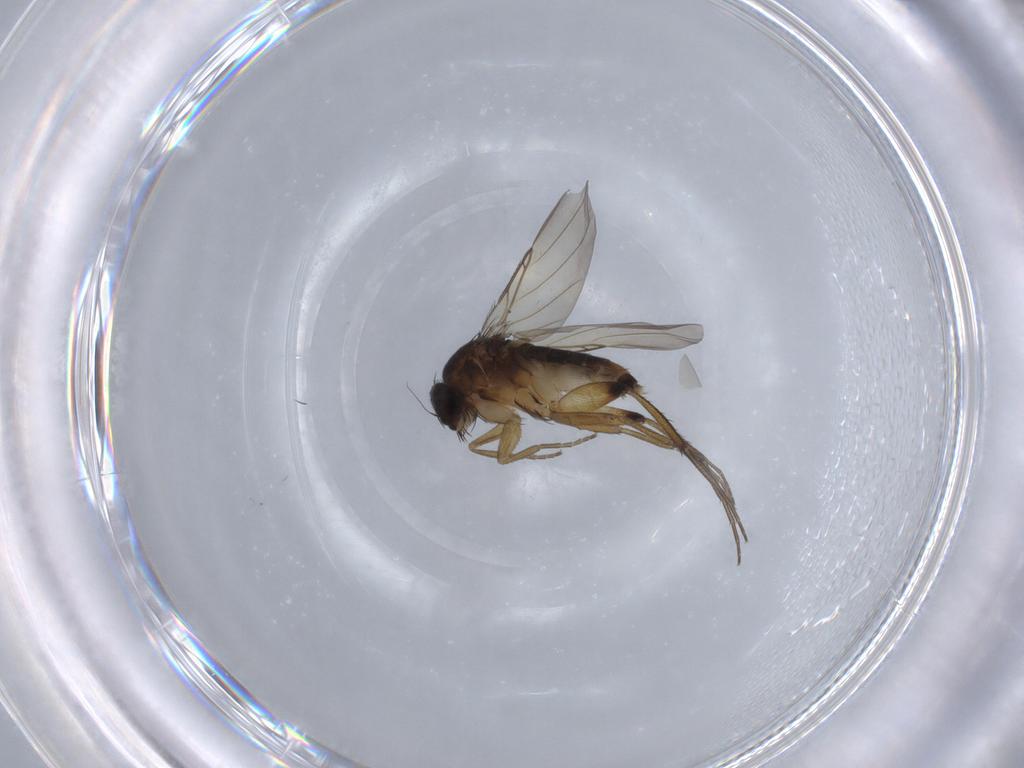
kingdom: Animalia
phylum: Arthropoda
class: Insecta
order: Diptera
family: Phoridae
